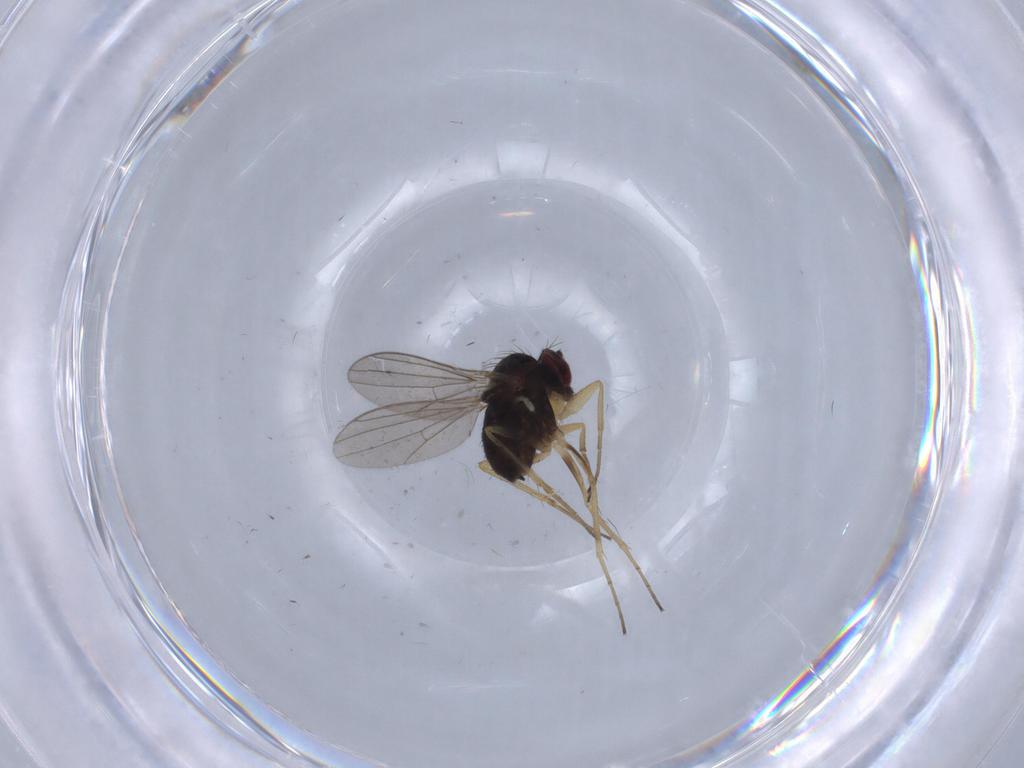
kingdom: Animalia
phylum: Arthropoda
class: Insecta
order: Diptera
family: Dolichopodidae
